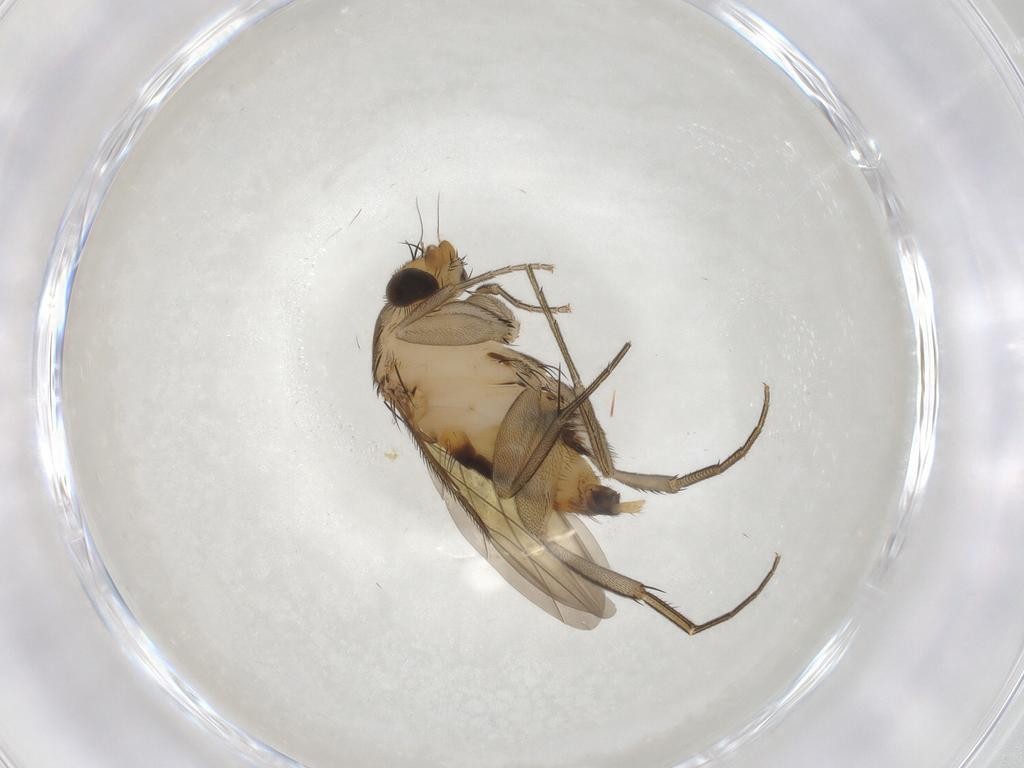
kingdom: Animalia
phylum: Arthropoda
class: Insecta
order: Diptera
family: Phoridae
